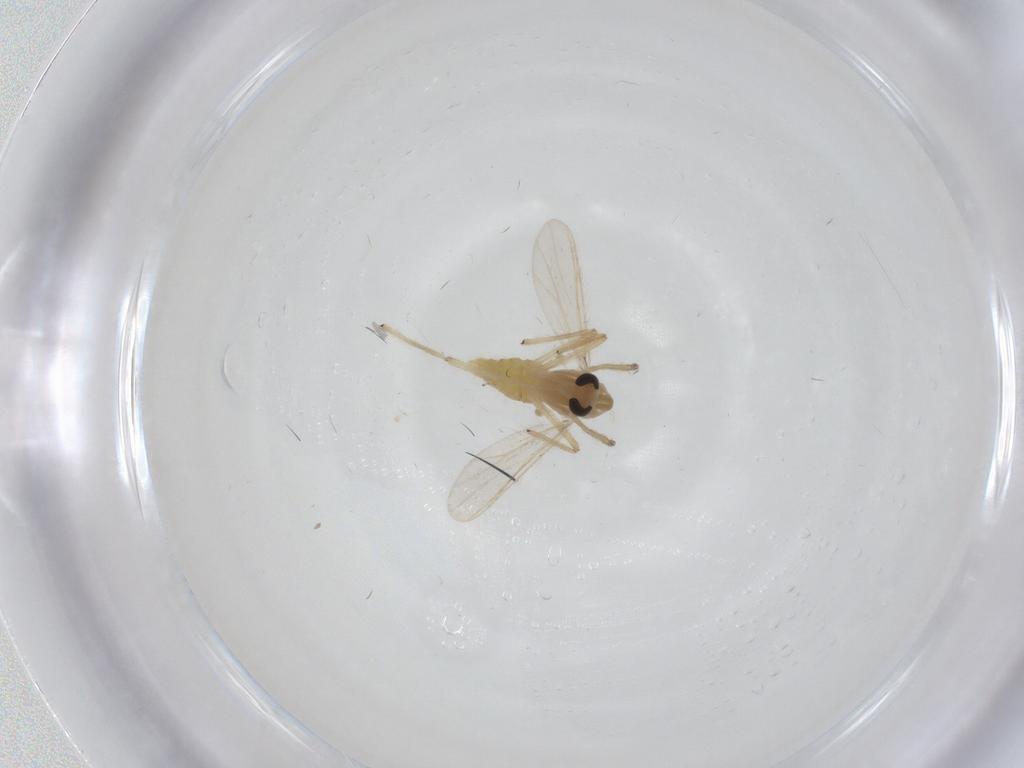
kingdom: Animalia
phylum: Arthropoda
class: Insecta
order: Diptera
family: Chironomidae
